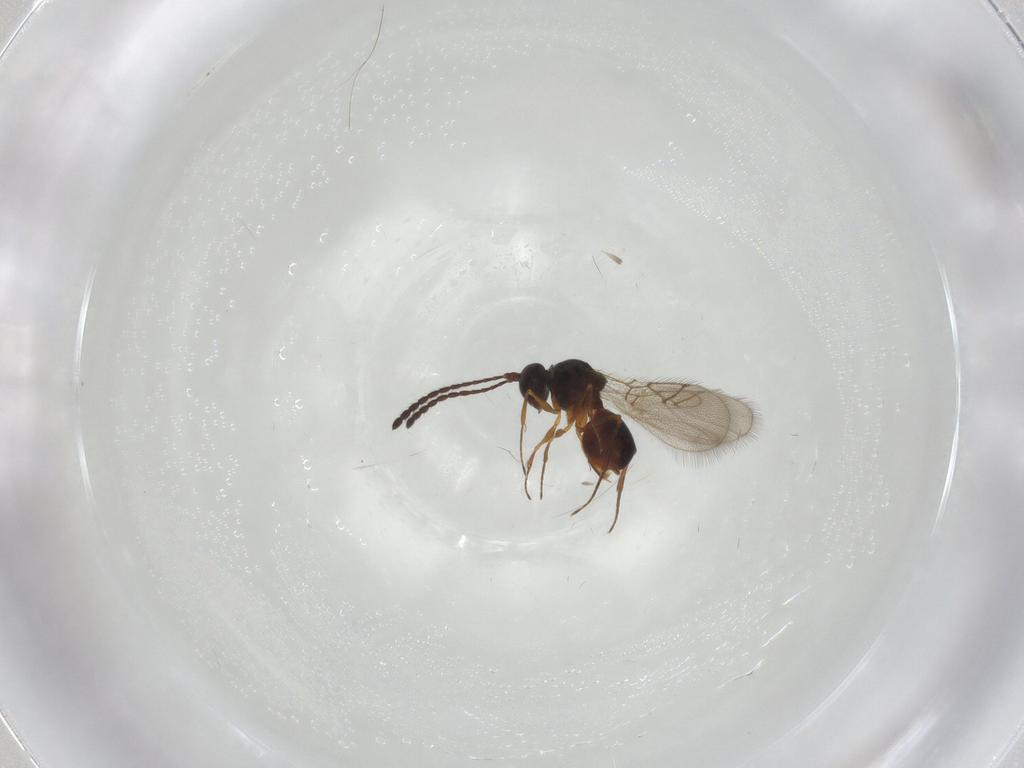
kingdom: Animalia
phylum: Arthropoda
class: Insecta
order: Hymenoptera
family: Figitidae
